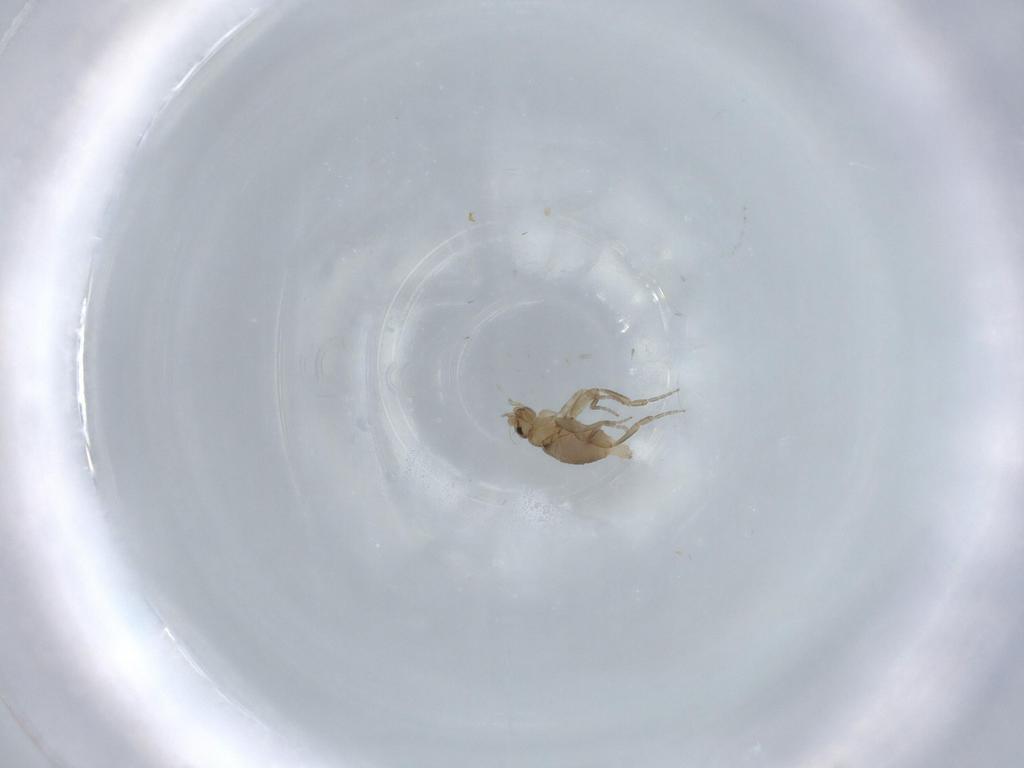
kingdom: Animalia
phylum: Arthropoda
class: Insecta
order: Diptera
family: Phoridae
